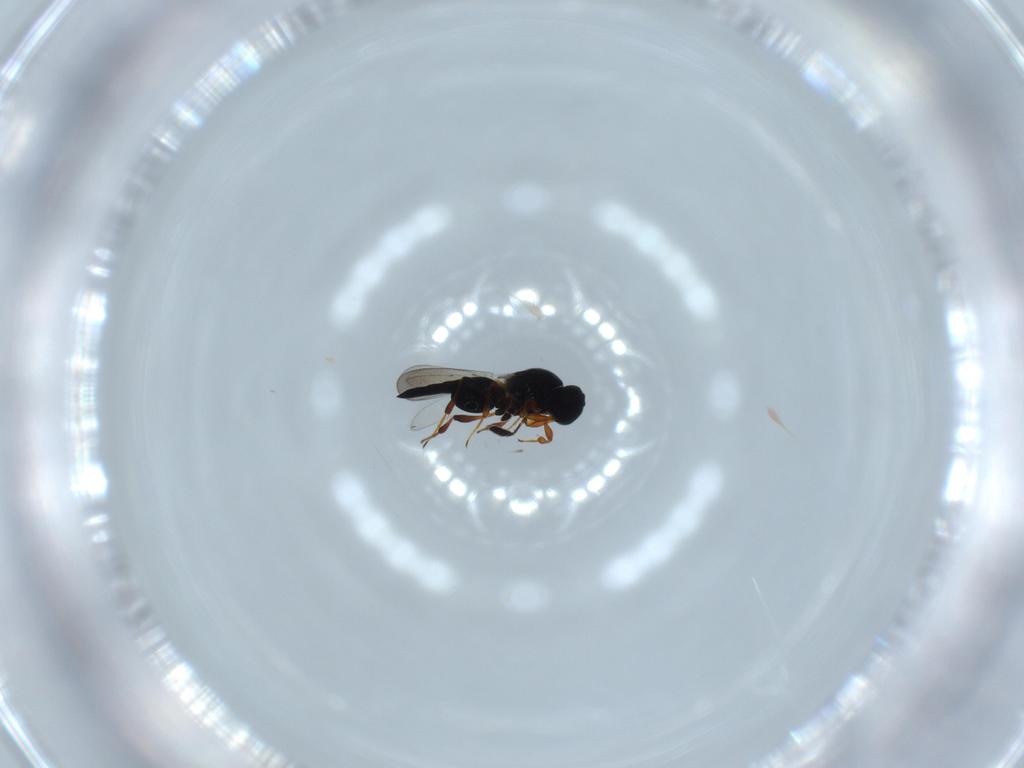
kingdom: Animalia
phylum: Arthropoda
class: Insecta
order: Hymenoptera
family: Platygastridae
